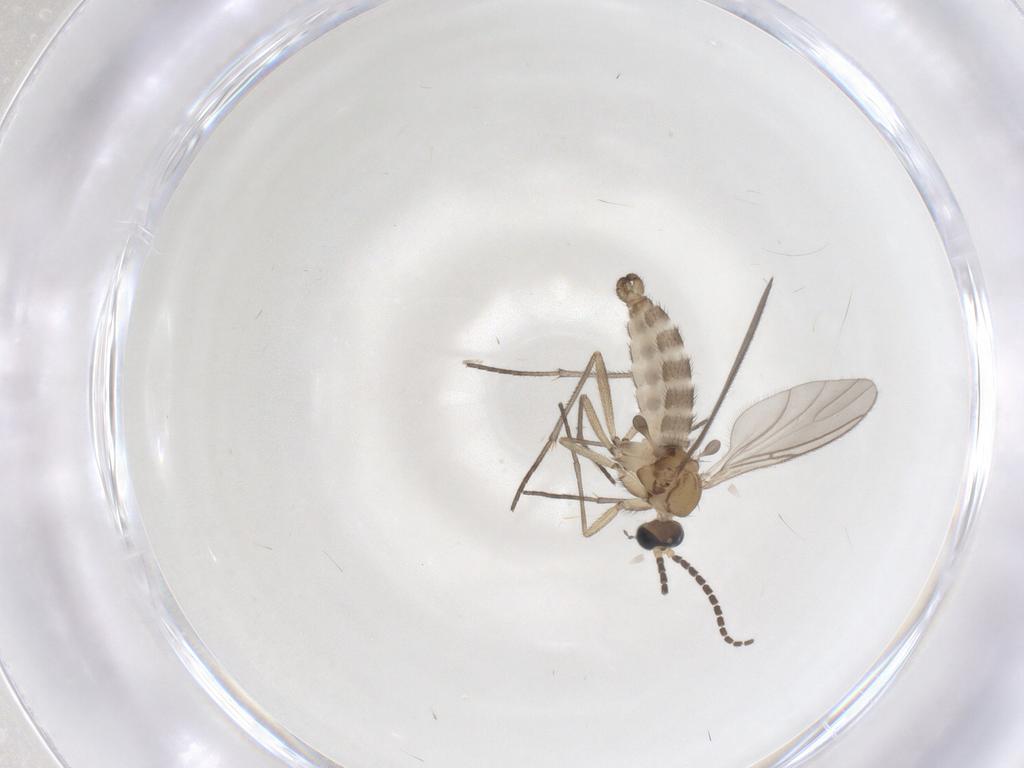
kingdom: Animalia
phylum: Arthropoda
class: Insecta
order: Diptera
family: Sciaridae
